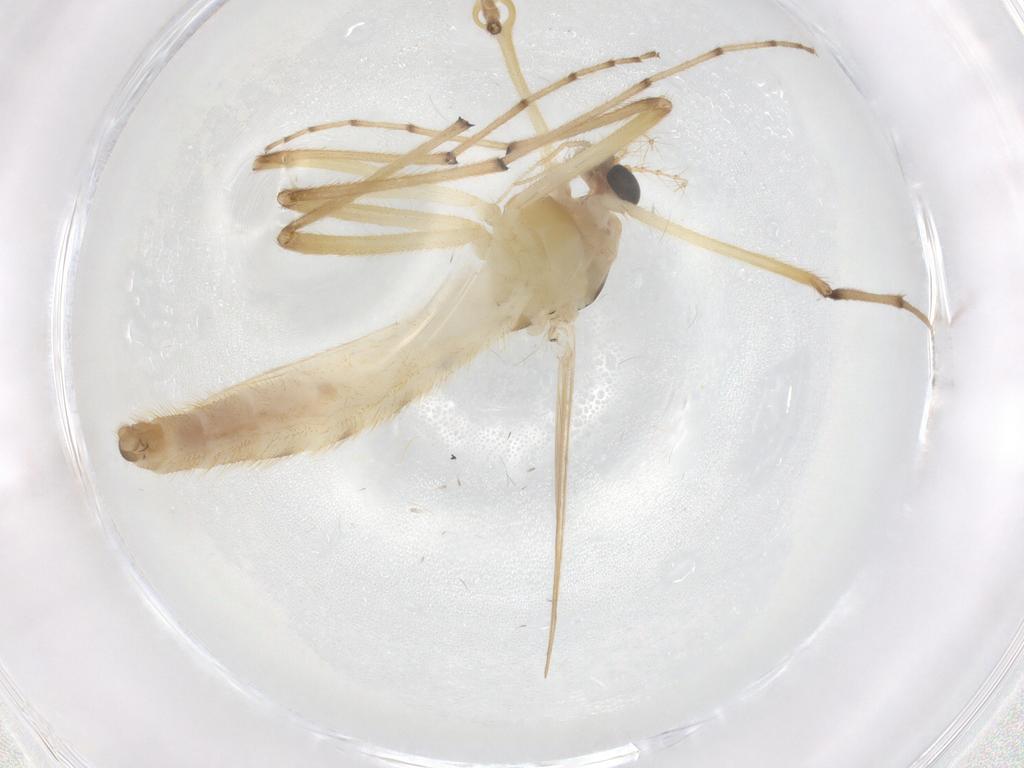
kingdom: Animalia
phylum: Arthropoda
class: Insecta
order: Diptera
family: Cecidomyiidae
